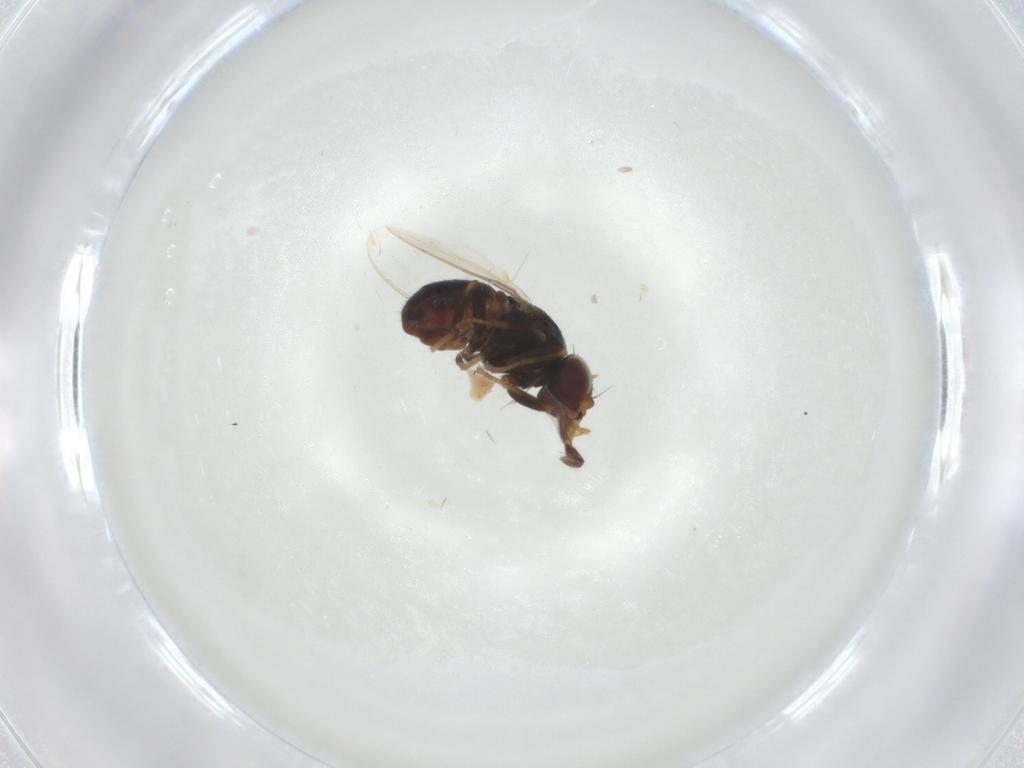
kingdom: Animalia
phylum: Arthropoda
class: Insecta
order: Diptera
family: Chloropidae
